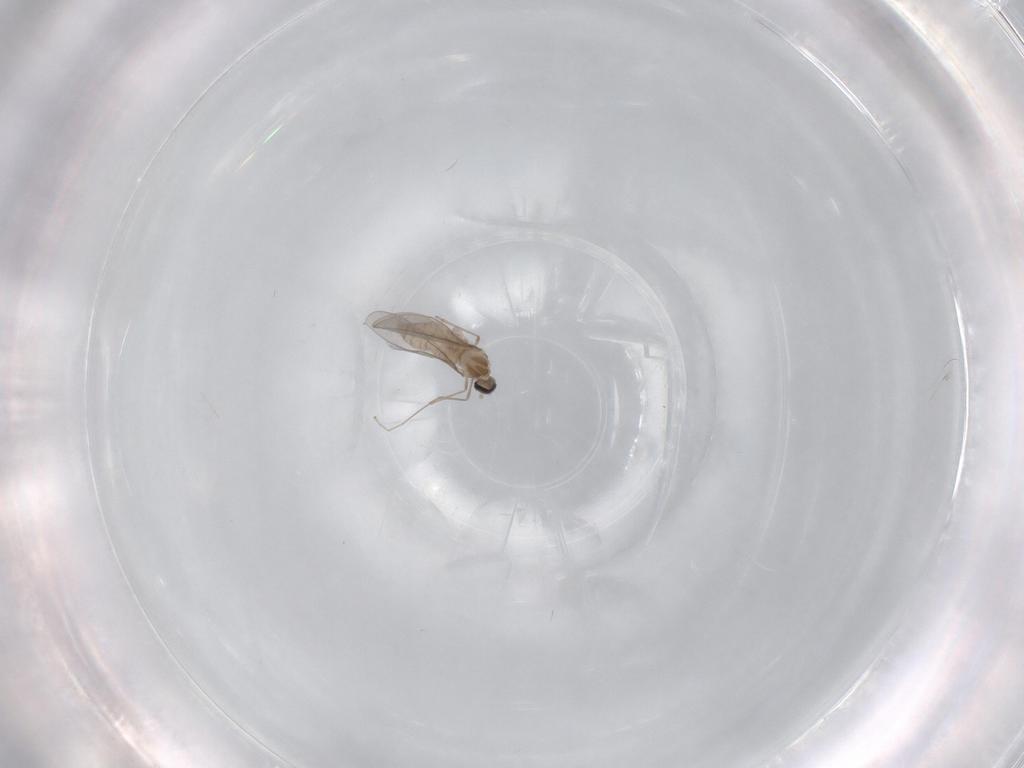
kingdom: Animalia
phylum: Arthropoda
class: Insecta
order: Diptera
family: Cecidomyiidae
